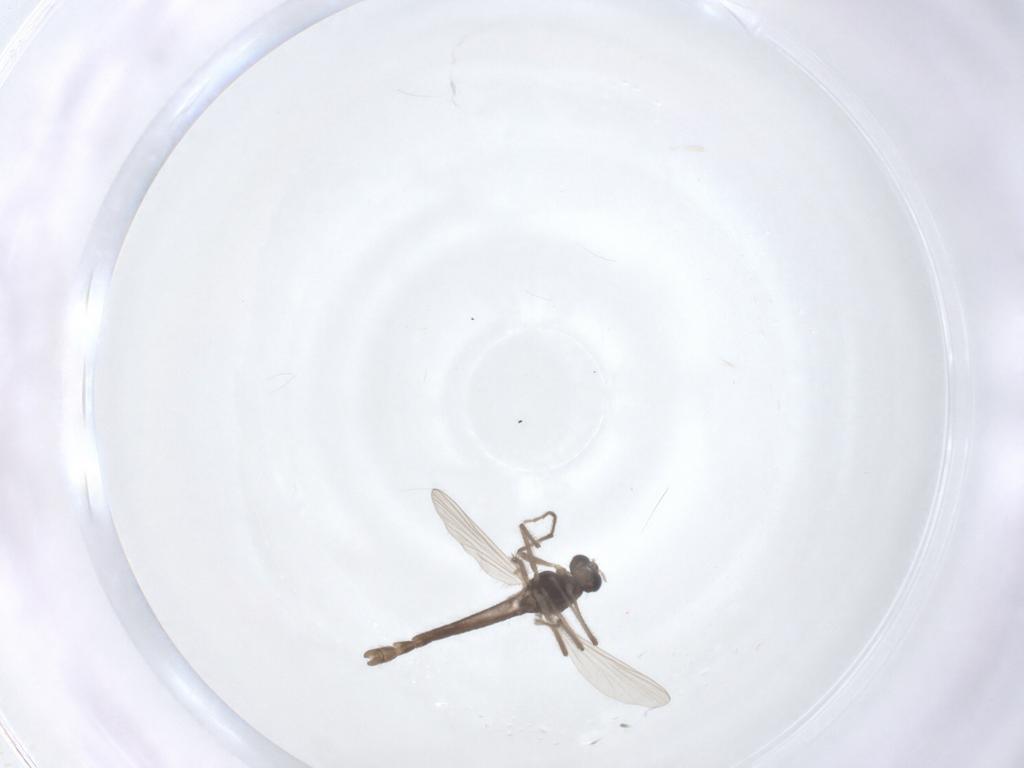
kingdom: Animalia
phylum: Arthropoda
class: Insecta
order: Diptera
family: Chironomidae
